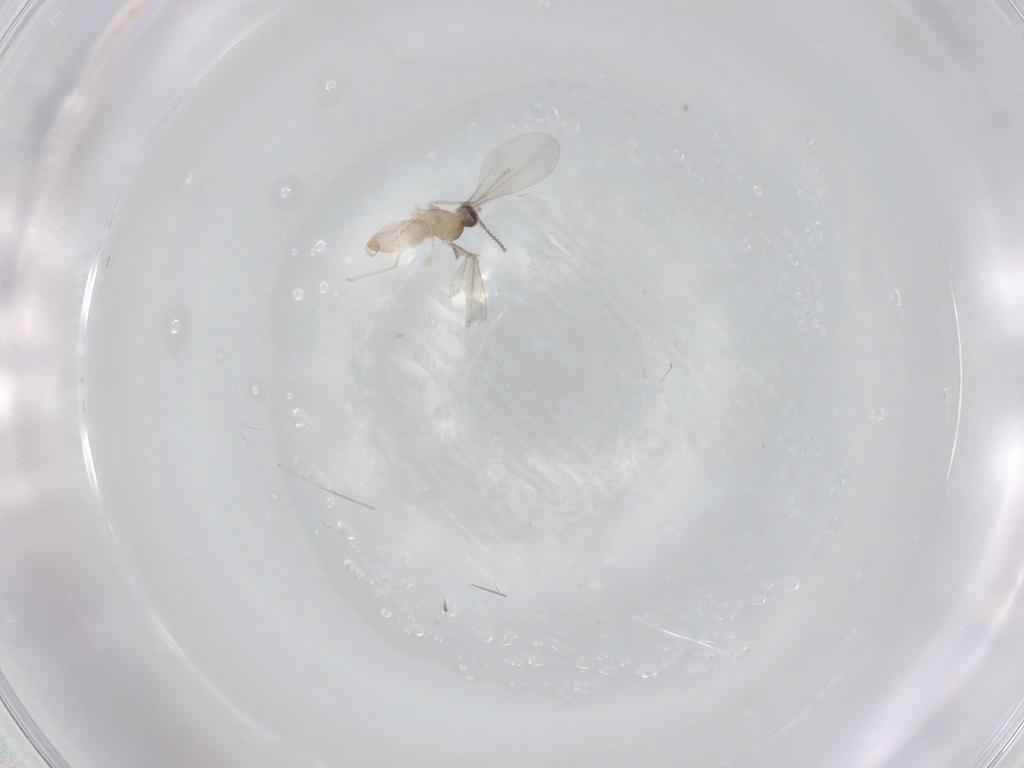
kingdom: Animalia
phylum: Arthropoda
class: Insecta
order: Diptera
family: Cecidomyiidae
